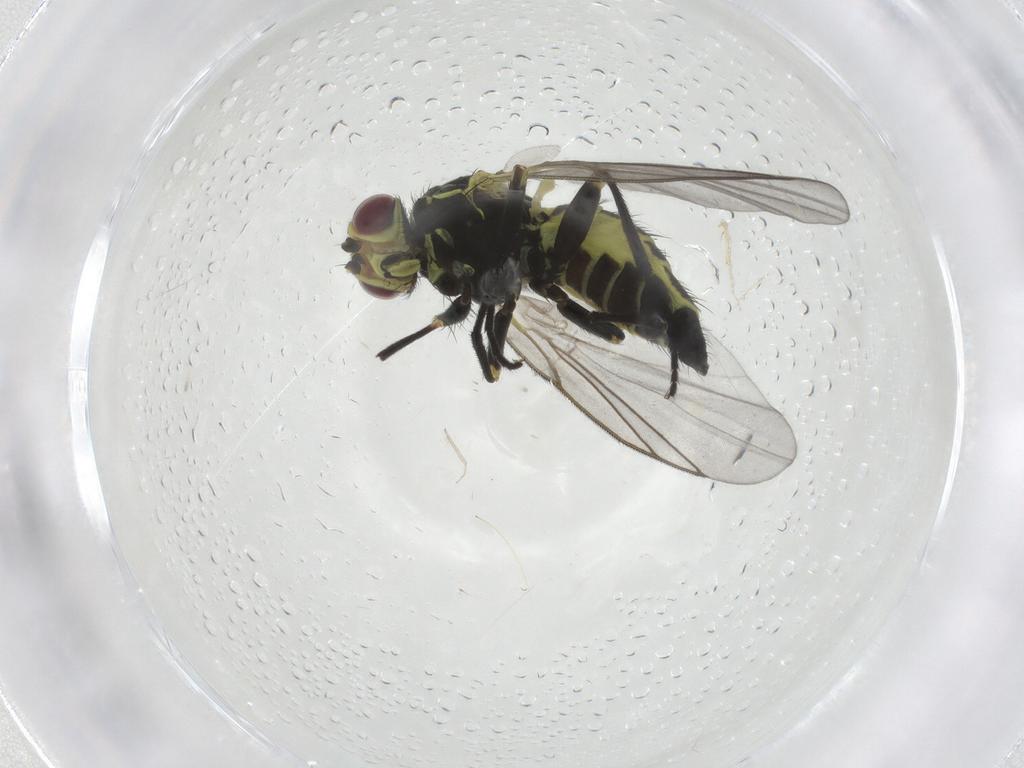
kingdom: Animalia
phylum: Arthropoda
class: Insecta
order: Diptera
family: Agromyzidae
